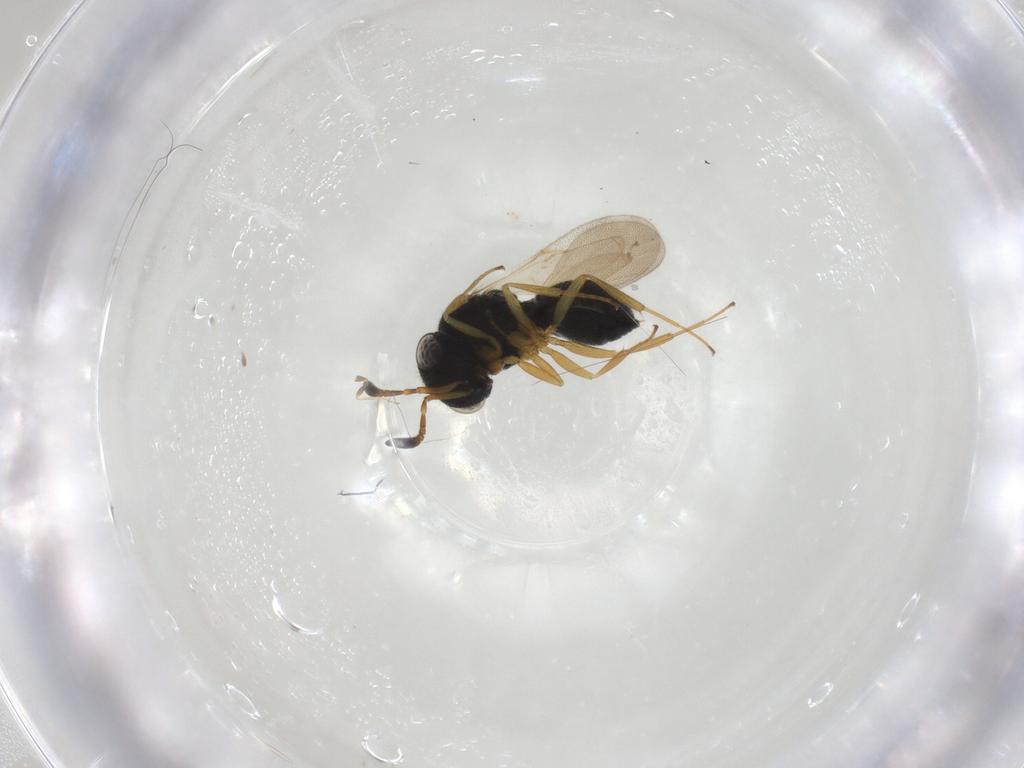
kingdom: Animalia
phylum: Arthropoda
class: Insecta
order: Hymenoptera
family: Scelionidae
